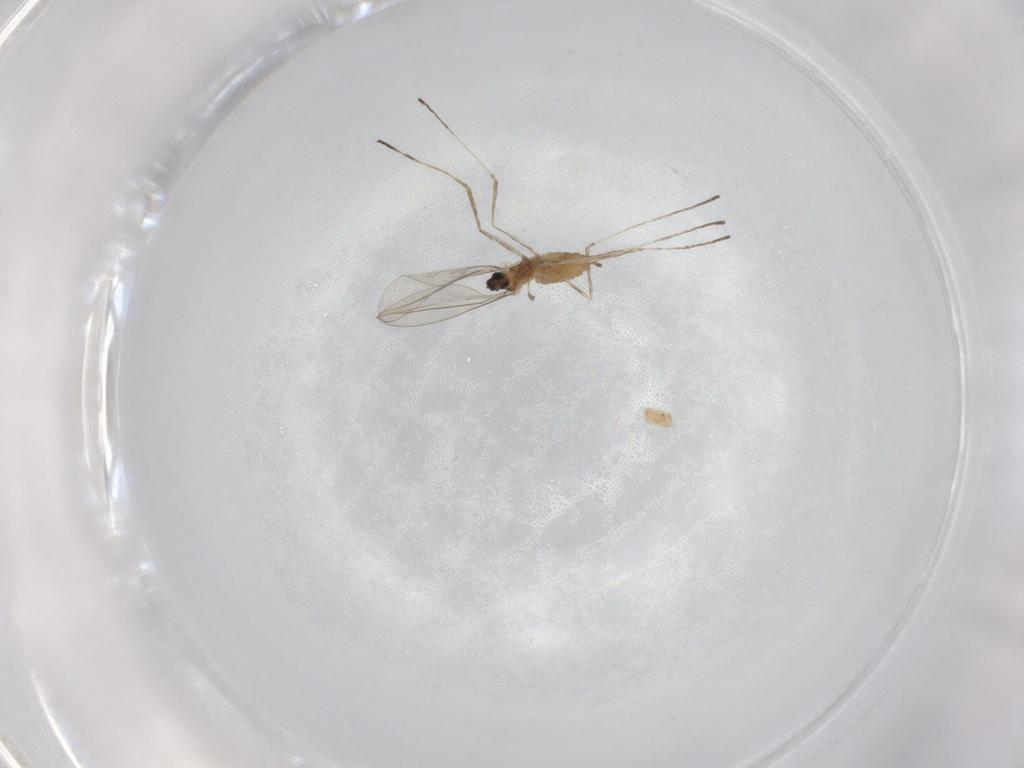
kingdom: Animalia
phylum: Arthropoda
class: Insecta
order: Diptera
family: Cecidomyiidae
